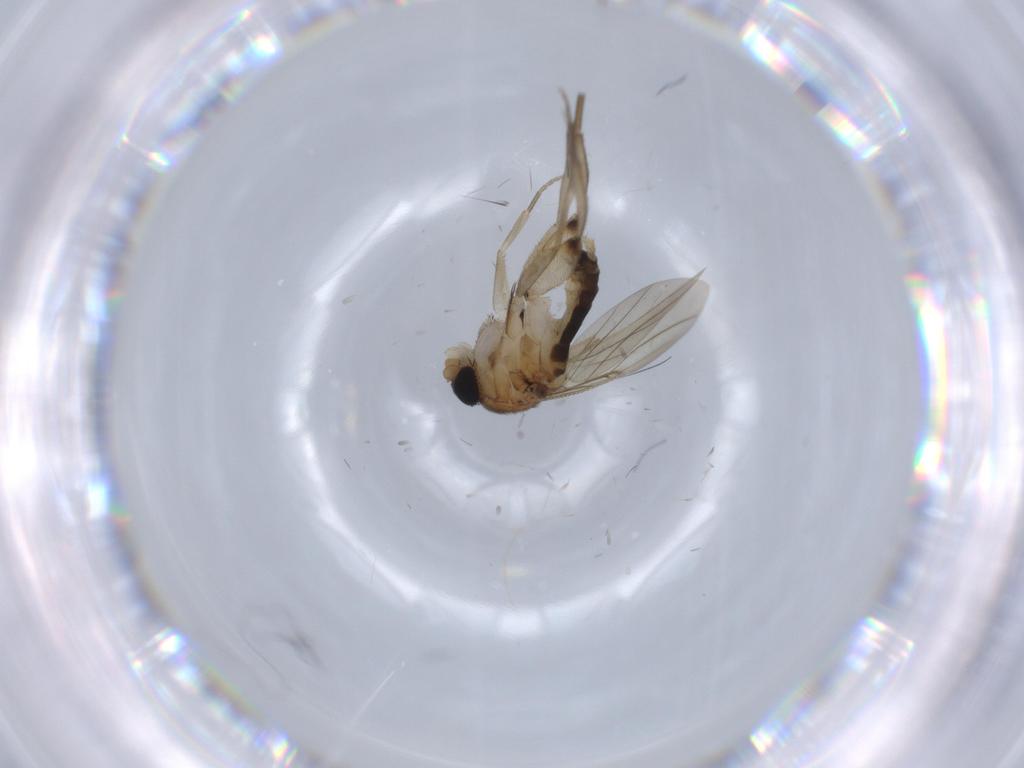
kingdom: Animalia
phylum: Arthropoda
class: Insecta
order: Diptera
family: Phoridae
